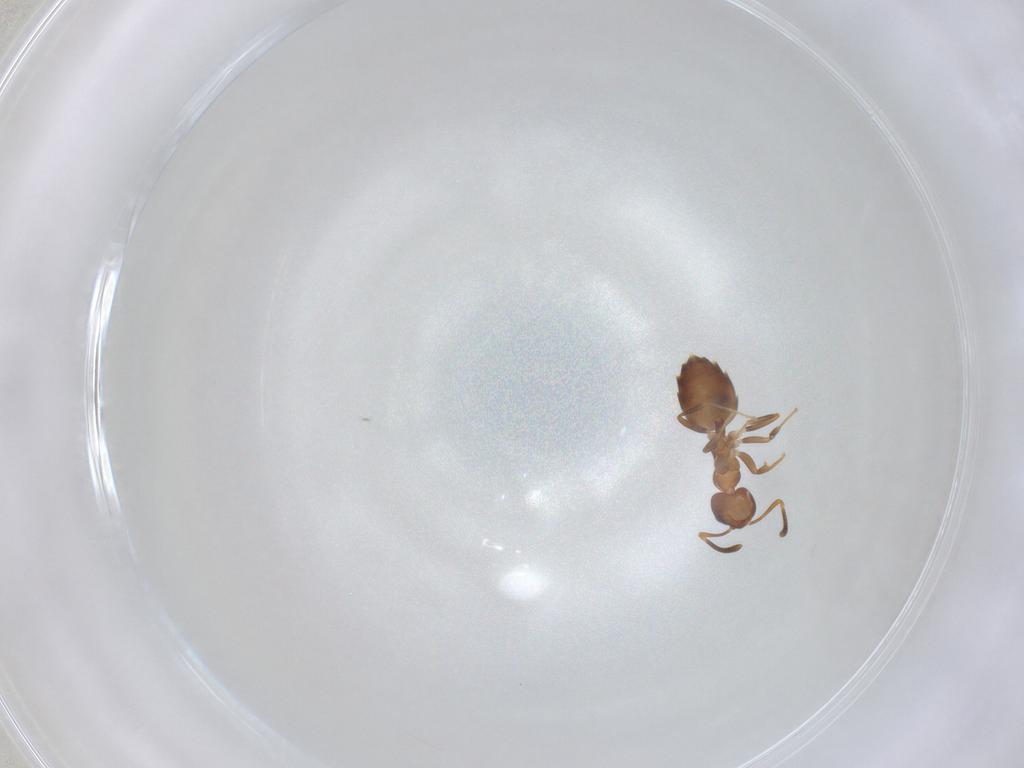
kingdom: Animalia
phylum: Arthropoda
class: Insecta
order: Hymenoptera
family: Formicidae
